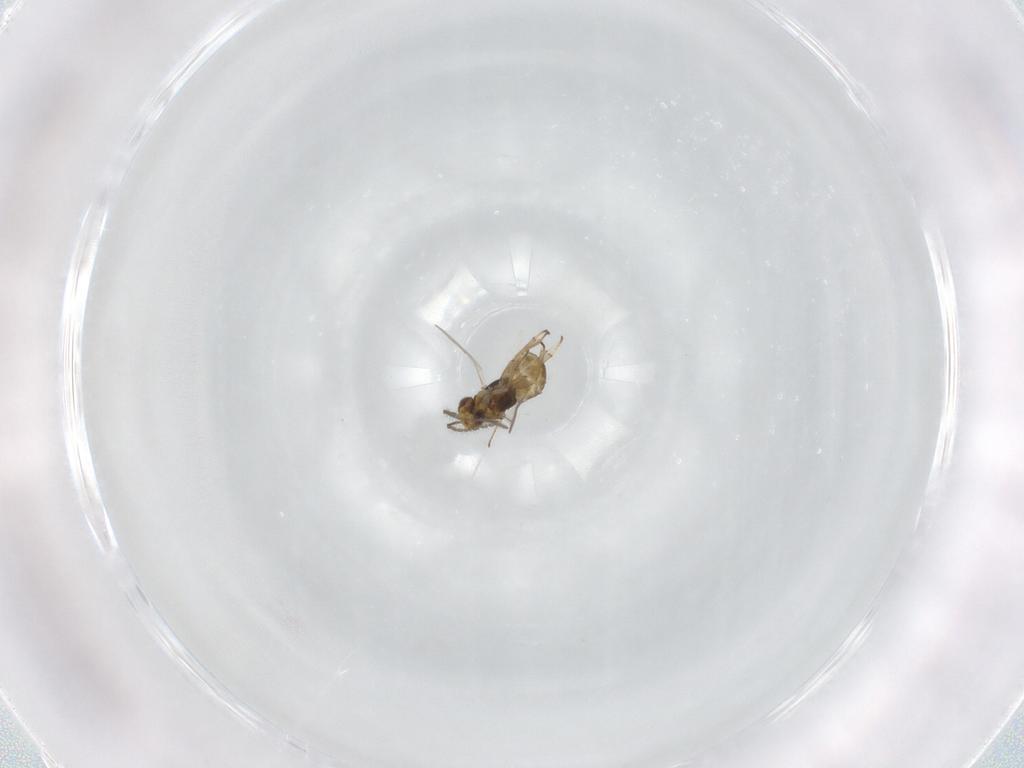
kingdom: Animalia
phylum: Arthropoda
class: Insecta
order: Hymenoptera
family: Encyrtidae
